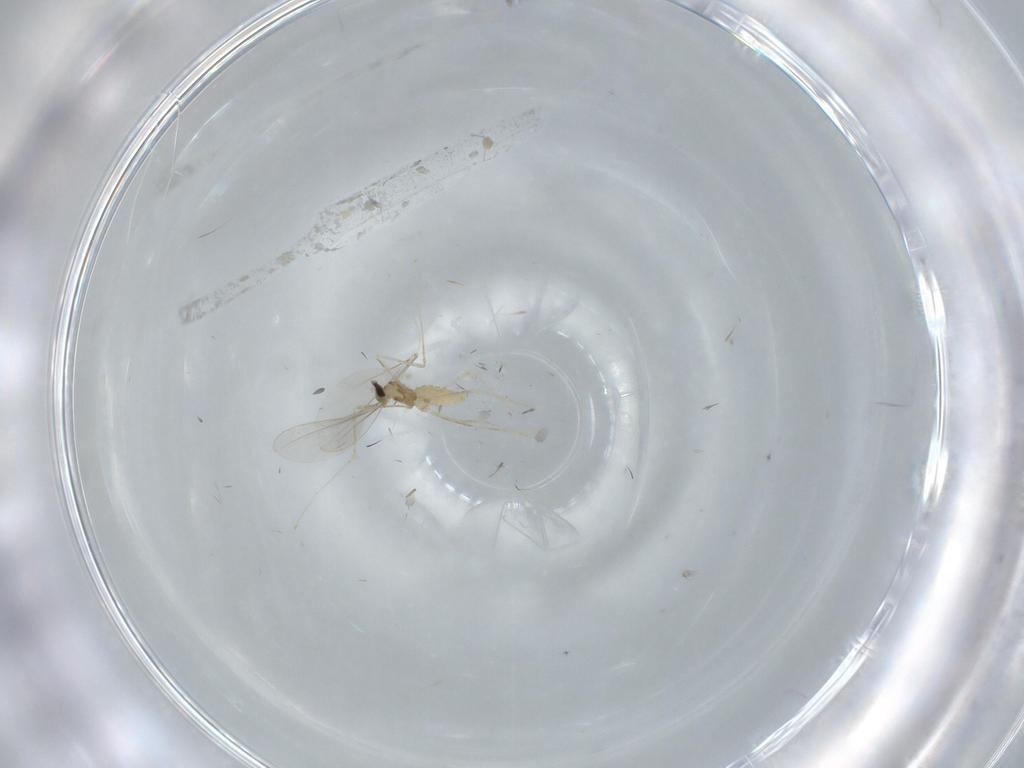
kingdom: Animalia
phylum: Arthropoda
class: Insecta
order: Diptera
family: Cecidomyiidae
